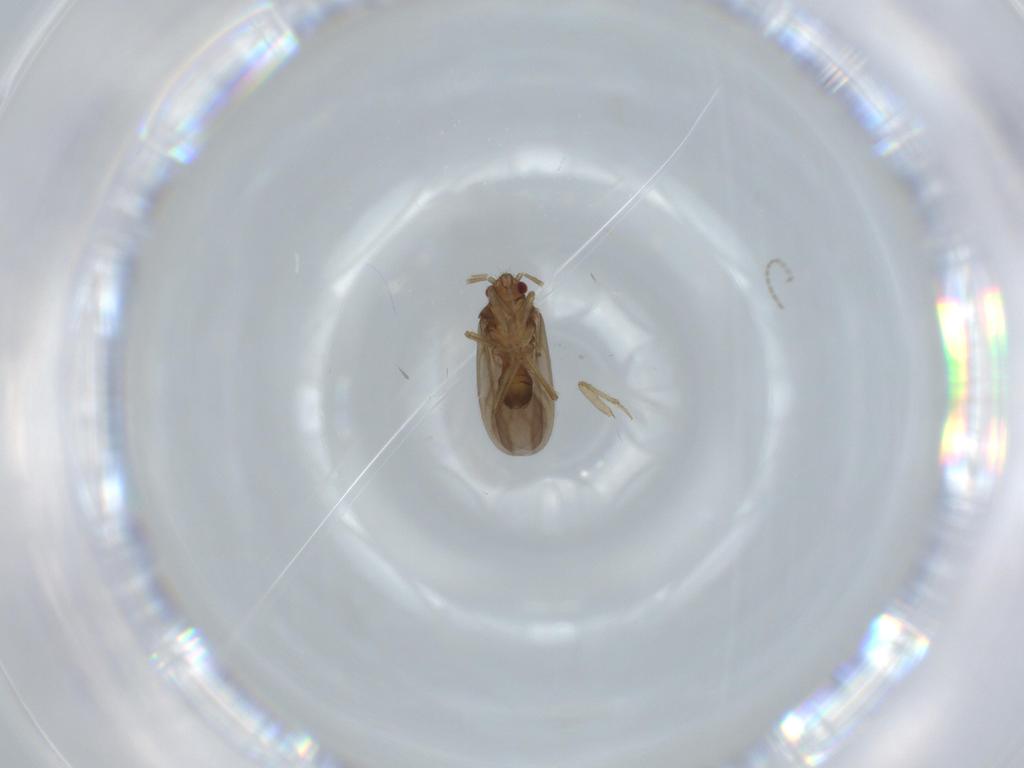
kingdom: Animalia
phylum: Arthropoda
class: Insecta
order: Hemiptera
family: Ceratocombidae
